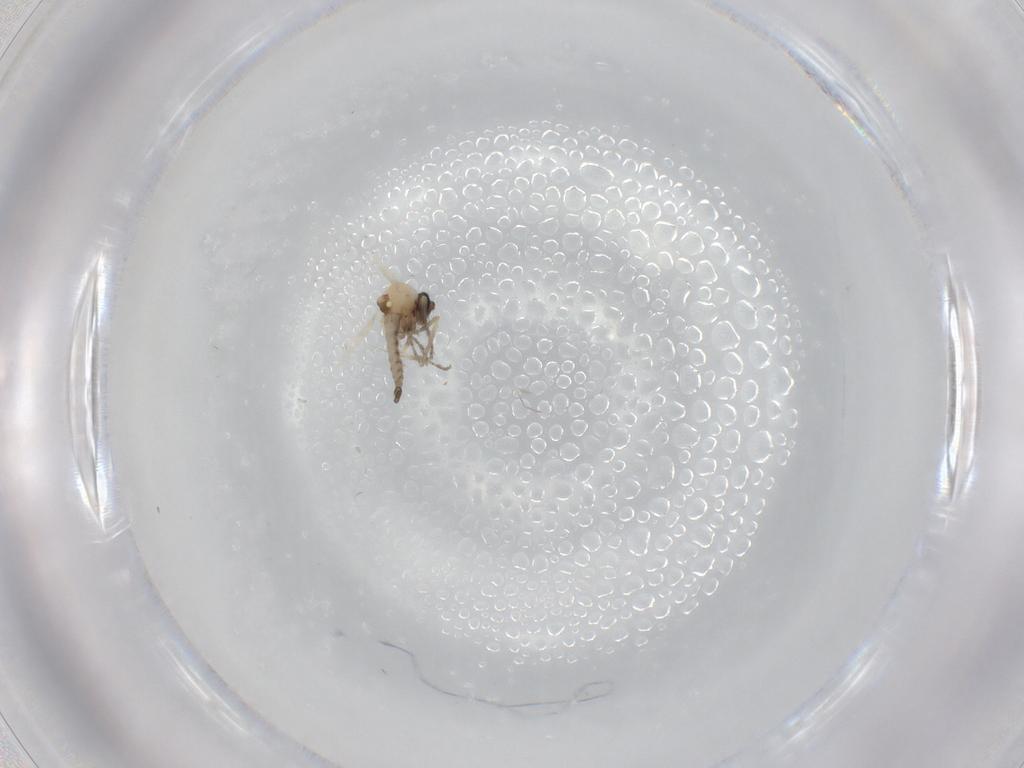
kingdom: Animalia
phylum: Arthropoda
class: Insecta
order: Diptera
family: Ceratopogonidae
